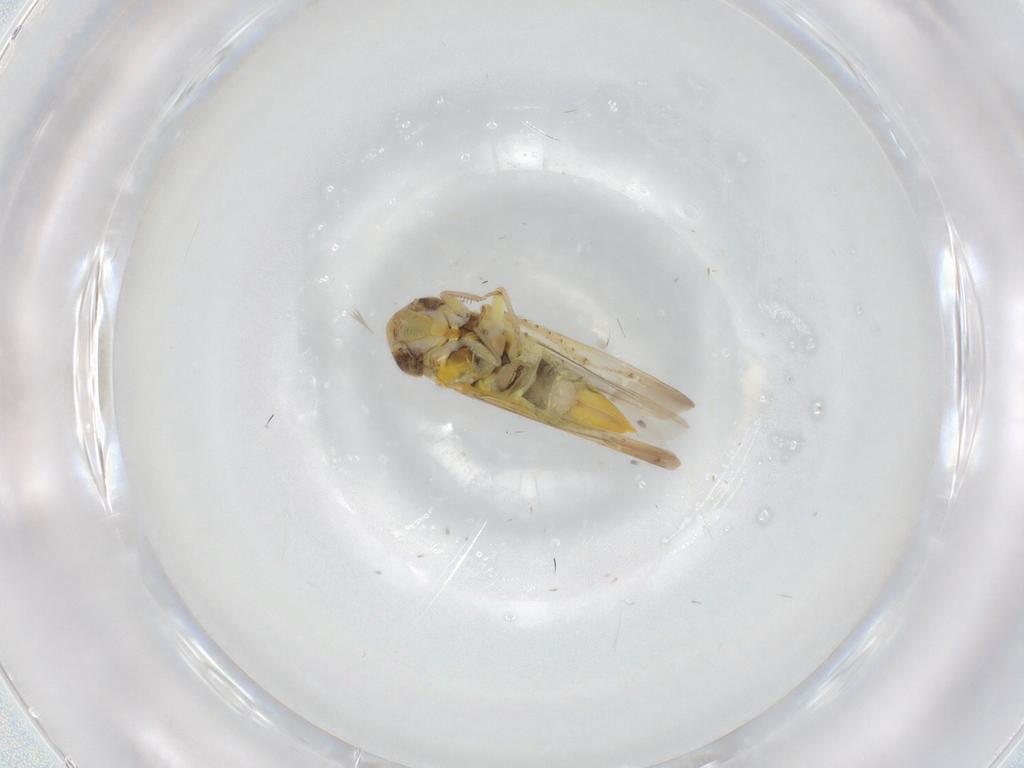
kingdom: Animalia
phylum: Arthropoda
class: Insecta
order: Hemiptera
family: Cicadellidae
